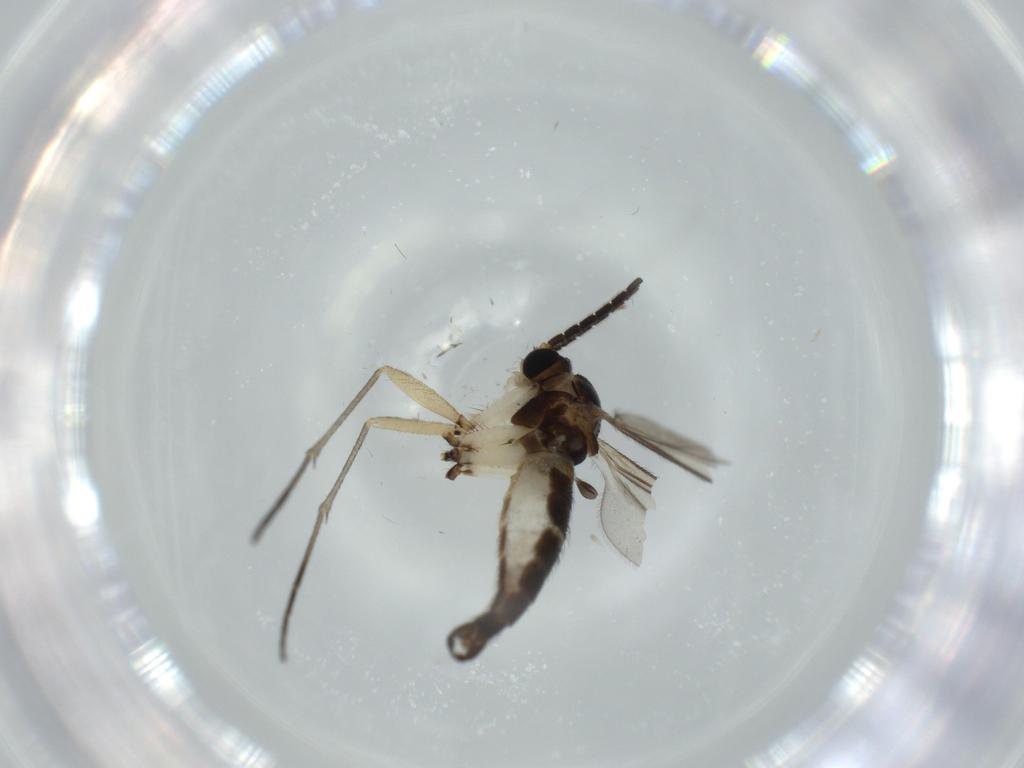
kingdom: Animalia
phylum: Arthropoda
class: Insecta
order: Diptera
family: Sciaridae
